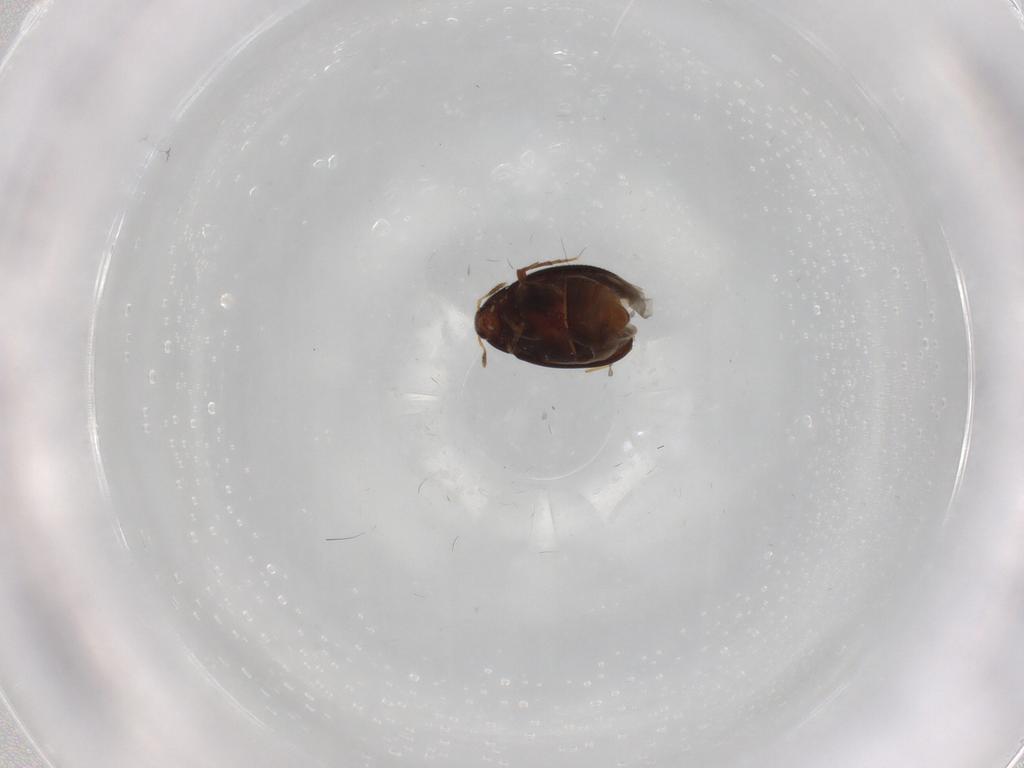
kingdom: Animalia
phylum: Arthropoda
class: Insecta
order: Coleoptera
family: Melandryidae
